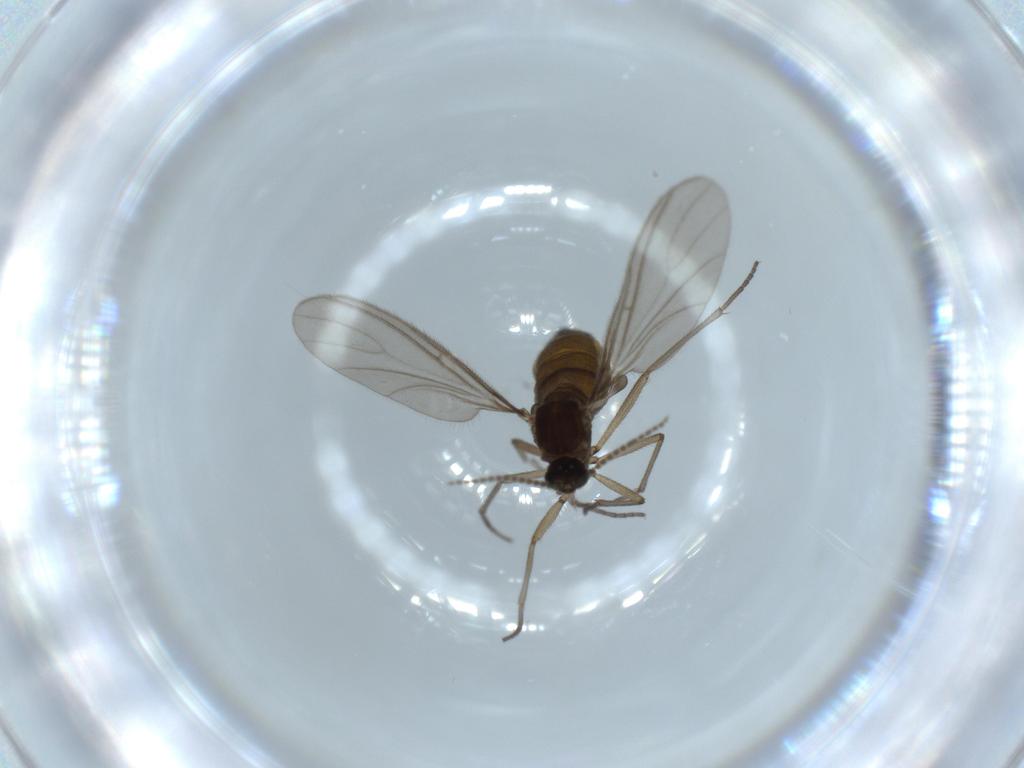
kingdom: Animalia
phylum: Arthropoda
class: Insecta
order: Diptera
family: Sciaridae
